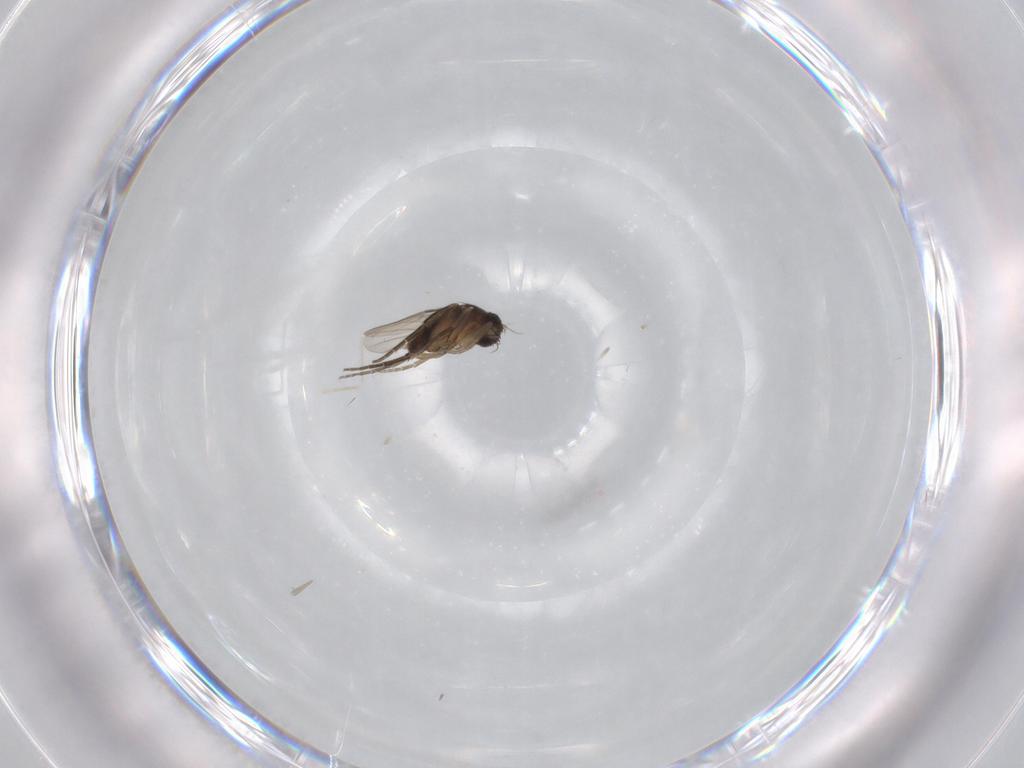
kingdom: Animalia
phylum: Arthropoda
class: Insecta
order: Diptera
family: Phoridae
